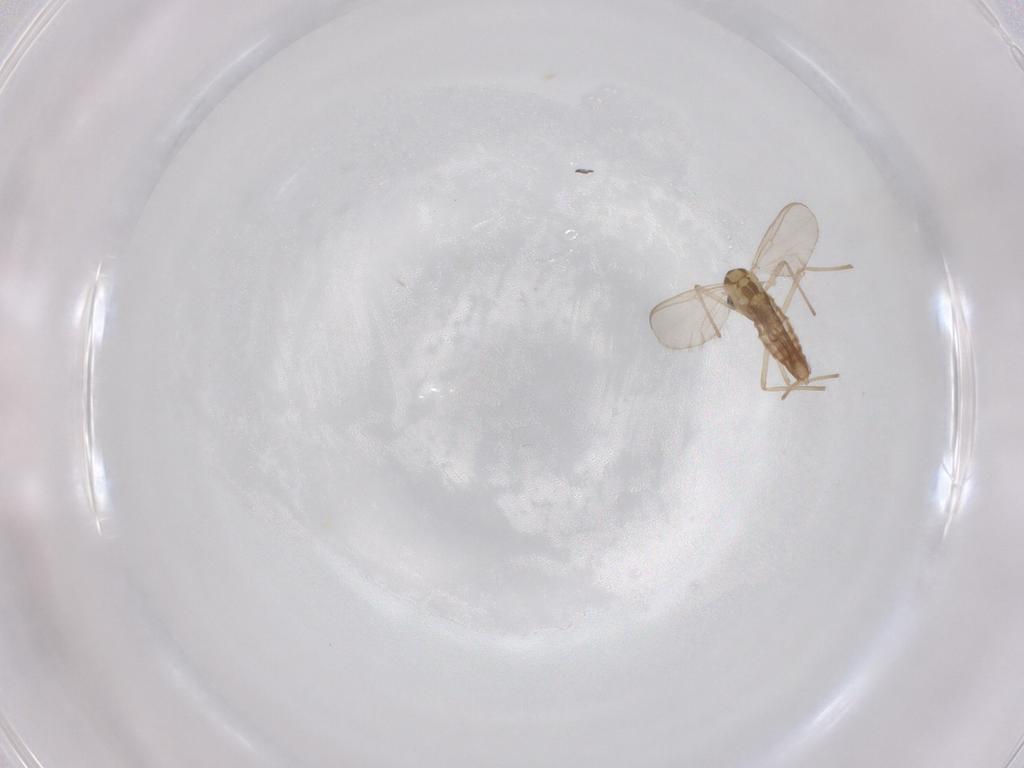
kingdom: Animalia
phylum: Arthropoda
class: Insecta
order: Diptera
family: Chironomidae
